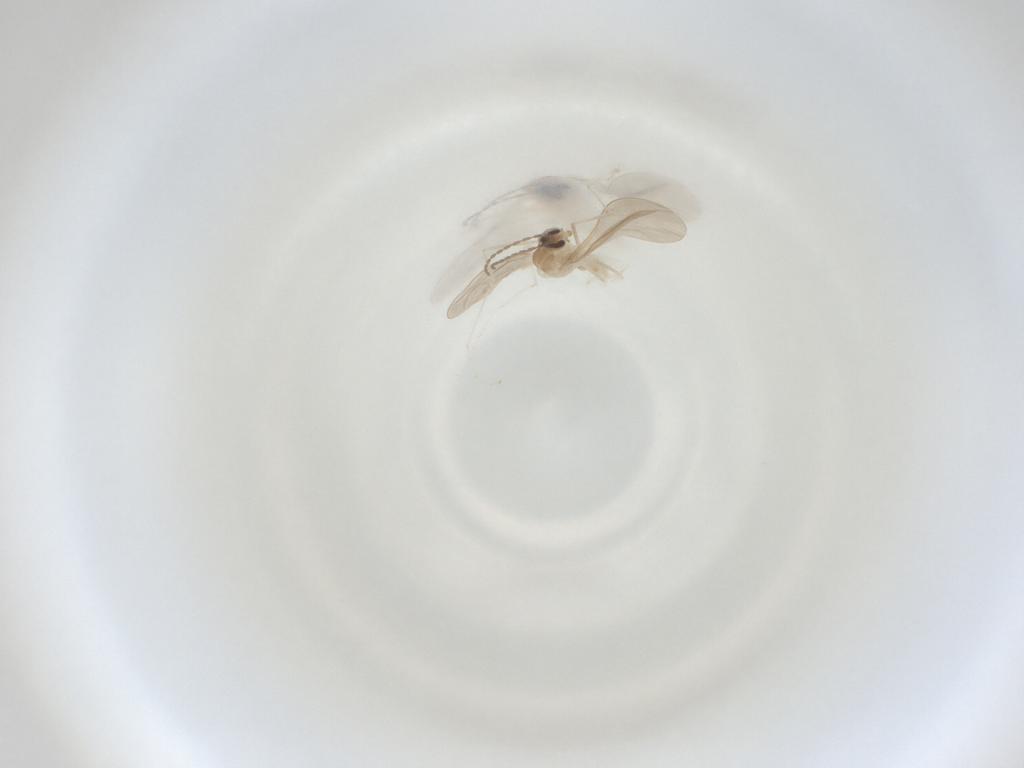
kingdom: Animalia
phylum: Arthropoda
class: Insecta
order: Diptera
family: Cecidomyiidae
